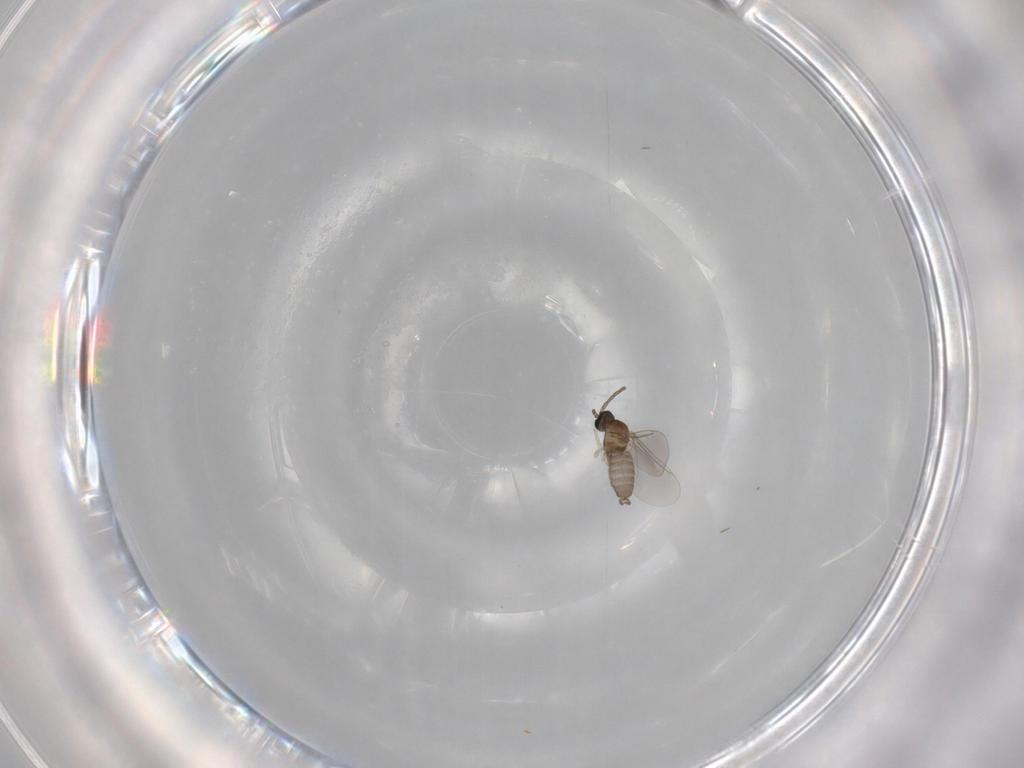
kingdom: Animalia
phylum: Arthropoda
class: Insecta
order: Diptera
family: Cecidomyiidae
